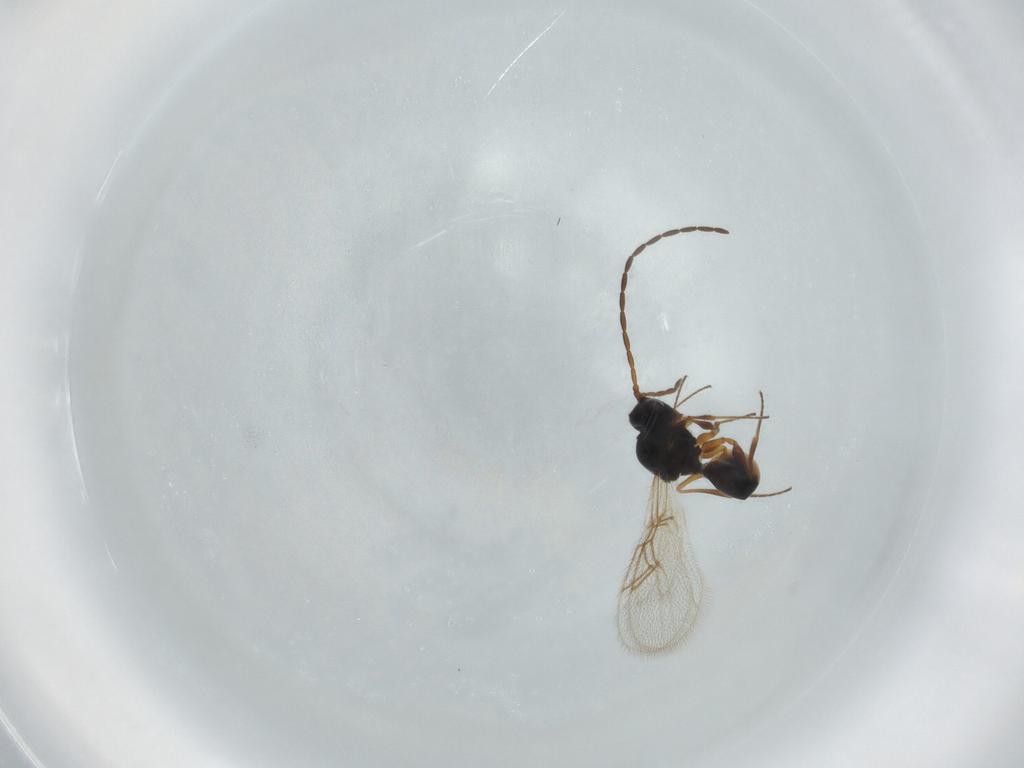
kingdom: Animalia
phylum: Arthropoda
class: Insecta
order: Hymenoptera
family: Figitidae
